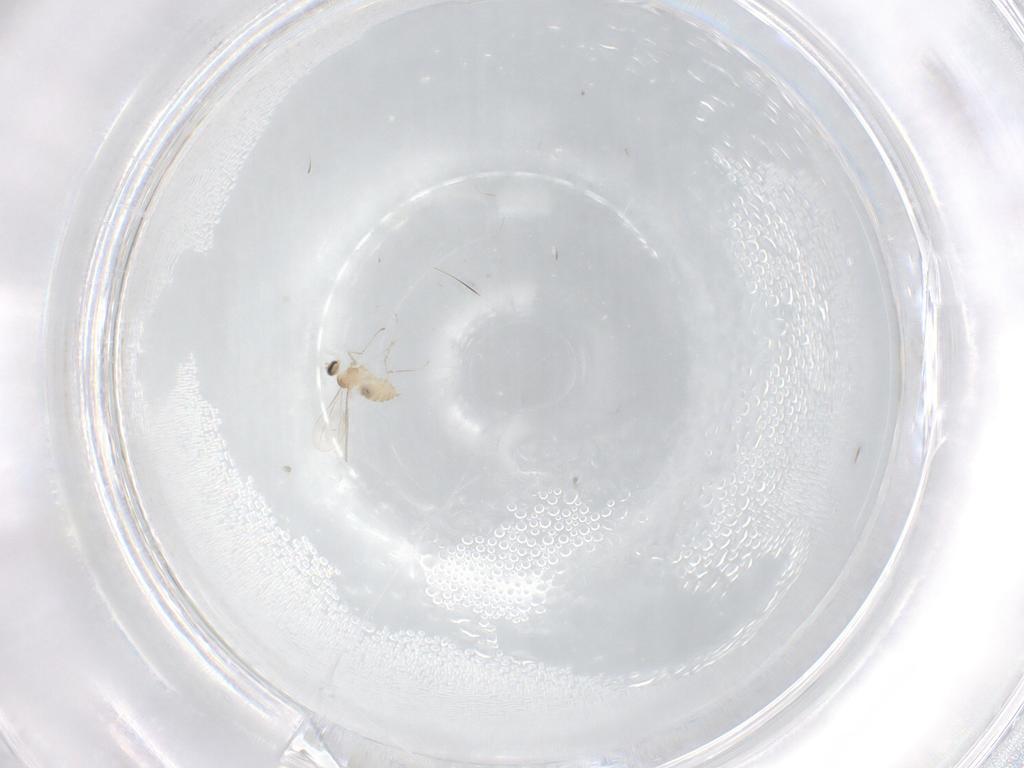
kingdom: Animalia
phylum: Arthropoda
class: Insecta
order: Diptera
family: Cecidomyiidae
